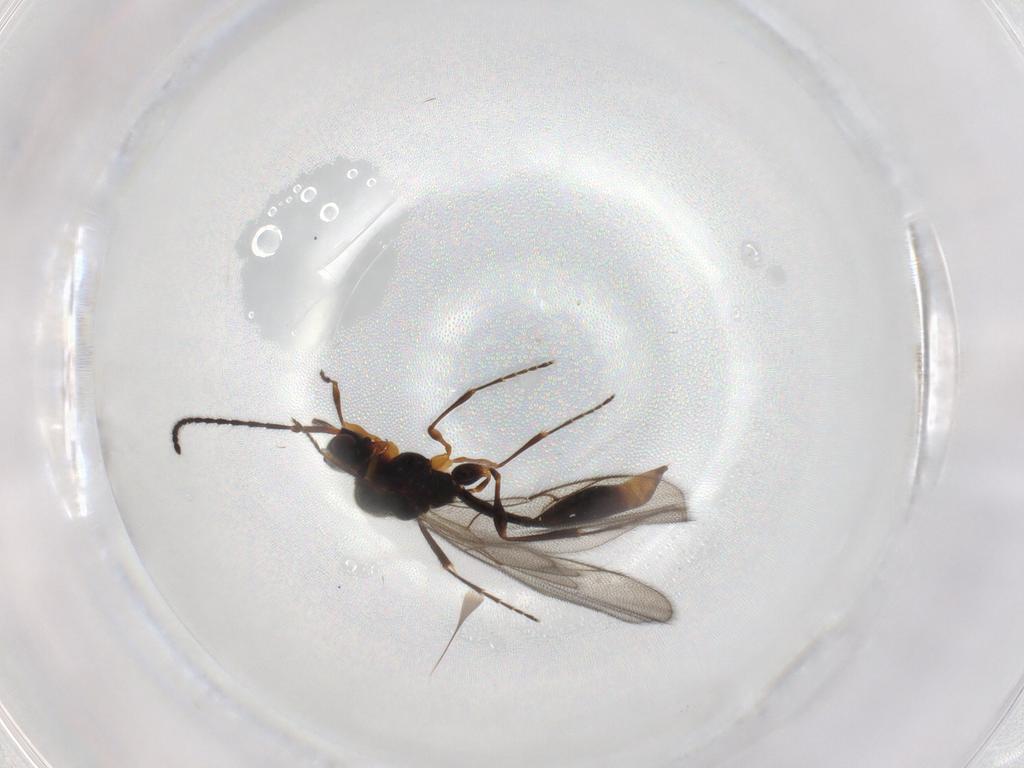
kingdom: Animalia
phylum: Arthropoda
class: Insecta
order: Hymenoptera
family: Diapriidae
